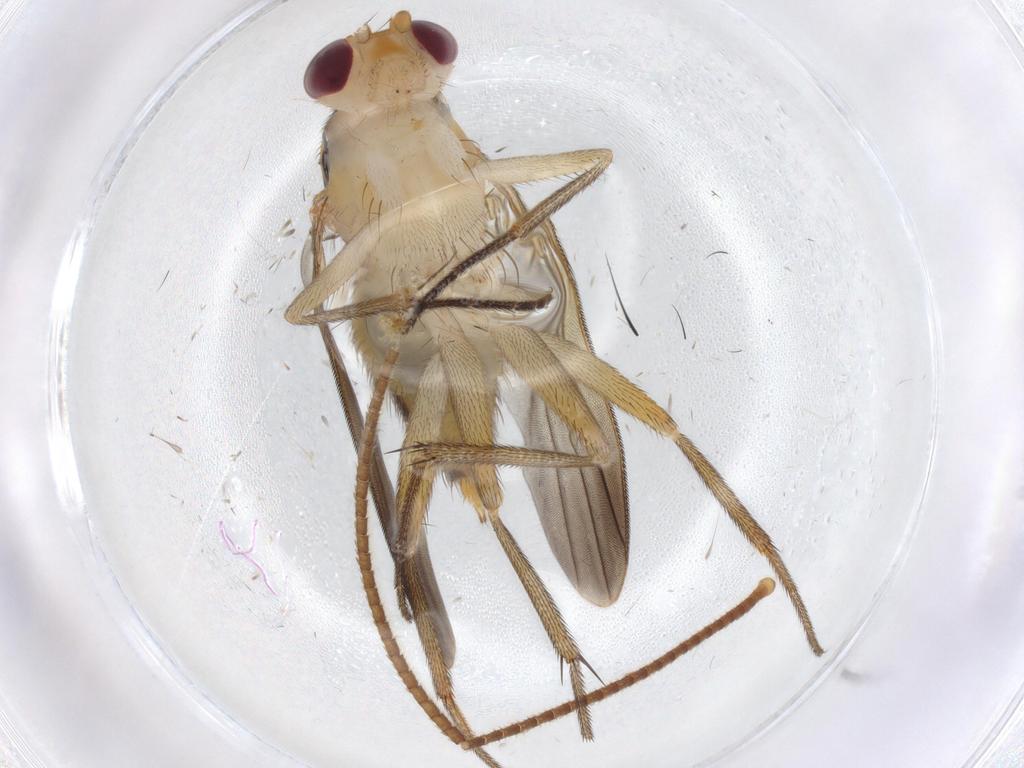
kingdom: Animalia
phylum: Arthropoda
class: Insecta
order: Diptera
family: Clusiidae
